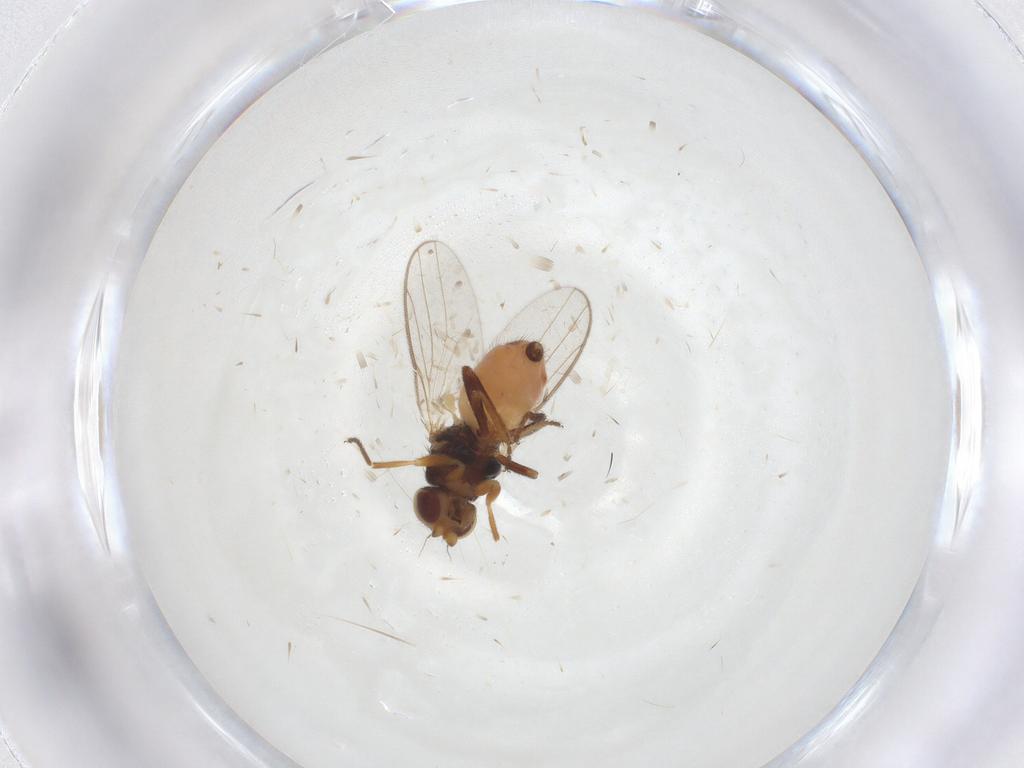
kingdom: Animalia
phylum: Arthropoda
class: Insecta
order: Diptera
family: Chloropidae
